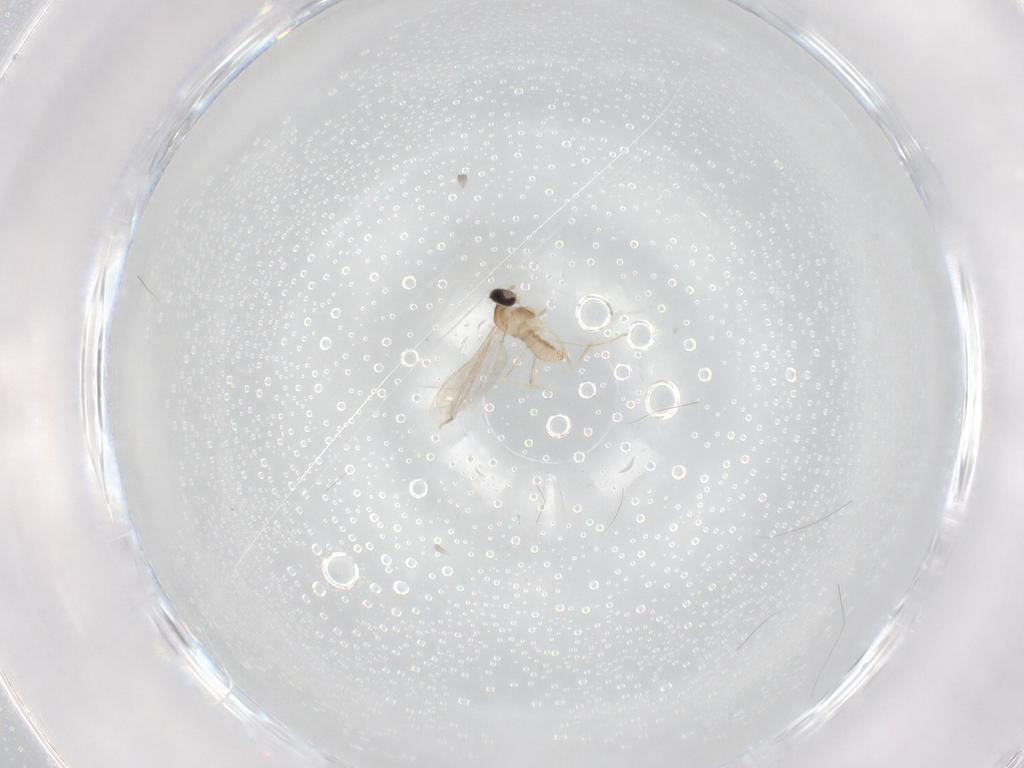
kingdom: Animalia
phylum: Arthropoda
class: Insecta
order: Diptera
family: Cecidomyiidae
